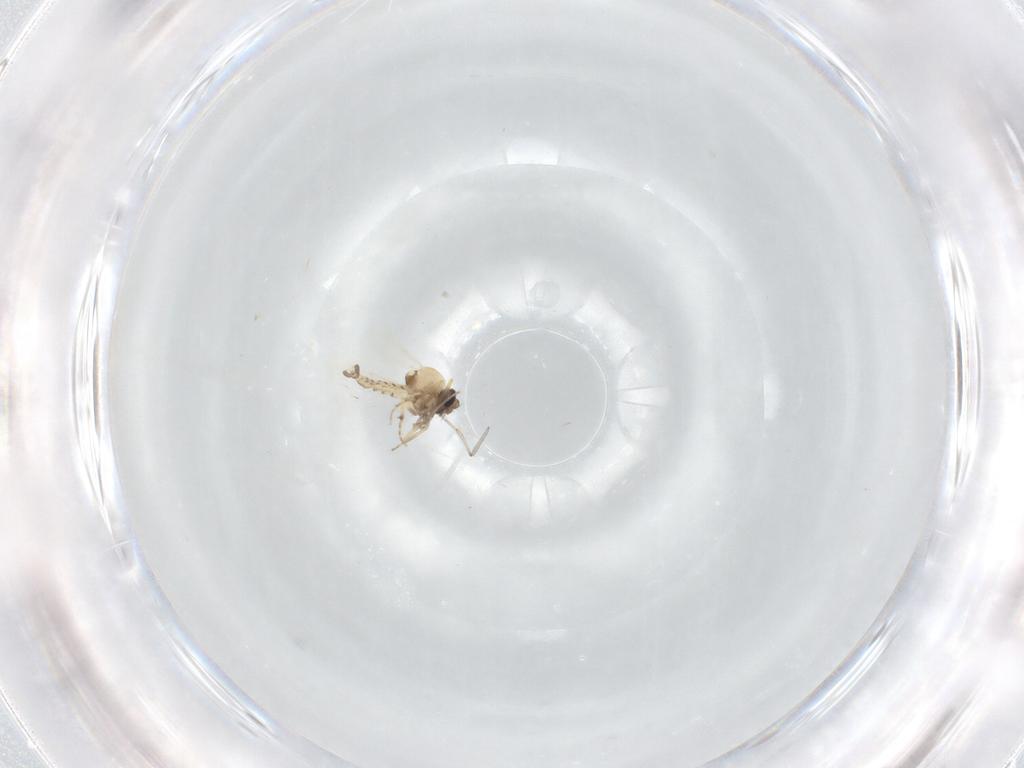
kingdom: Animalia
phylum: Arthropoda
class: Insecta
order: Diptera
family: Ceratopogonidae
